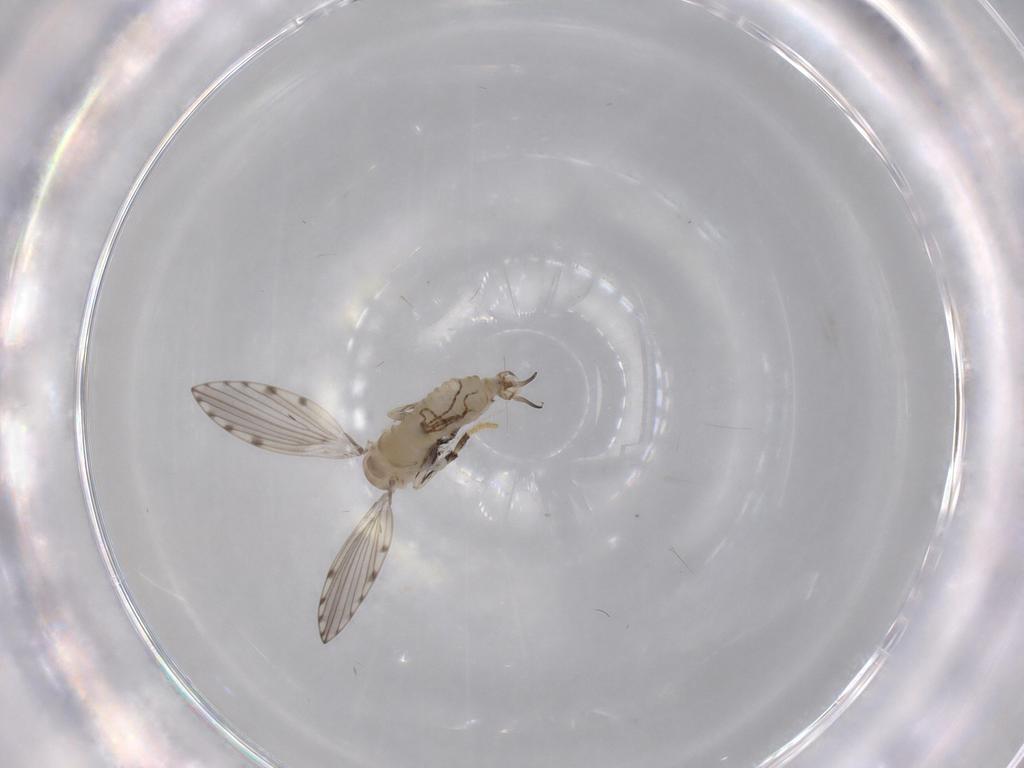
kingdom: Animalia
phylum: Arthropoda
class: Insecta
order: Diptera
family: Psychodidae
